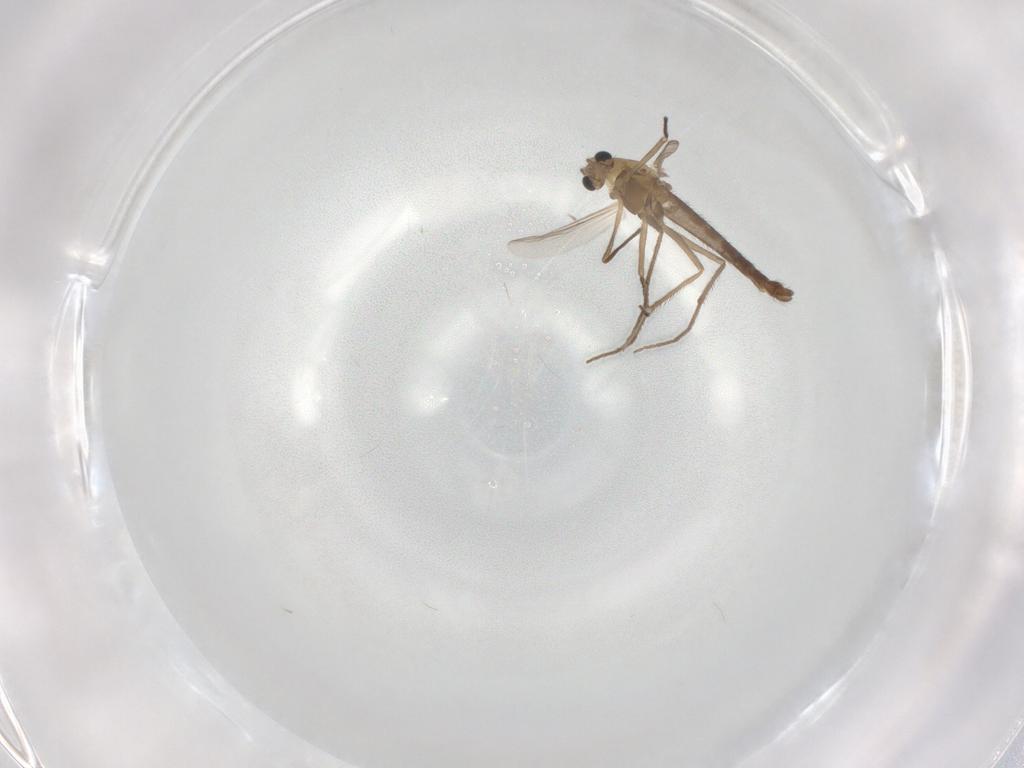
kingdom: Animalia
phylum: Arthropoda
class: Insecta
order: Diptera
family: Chironomidae
